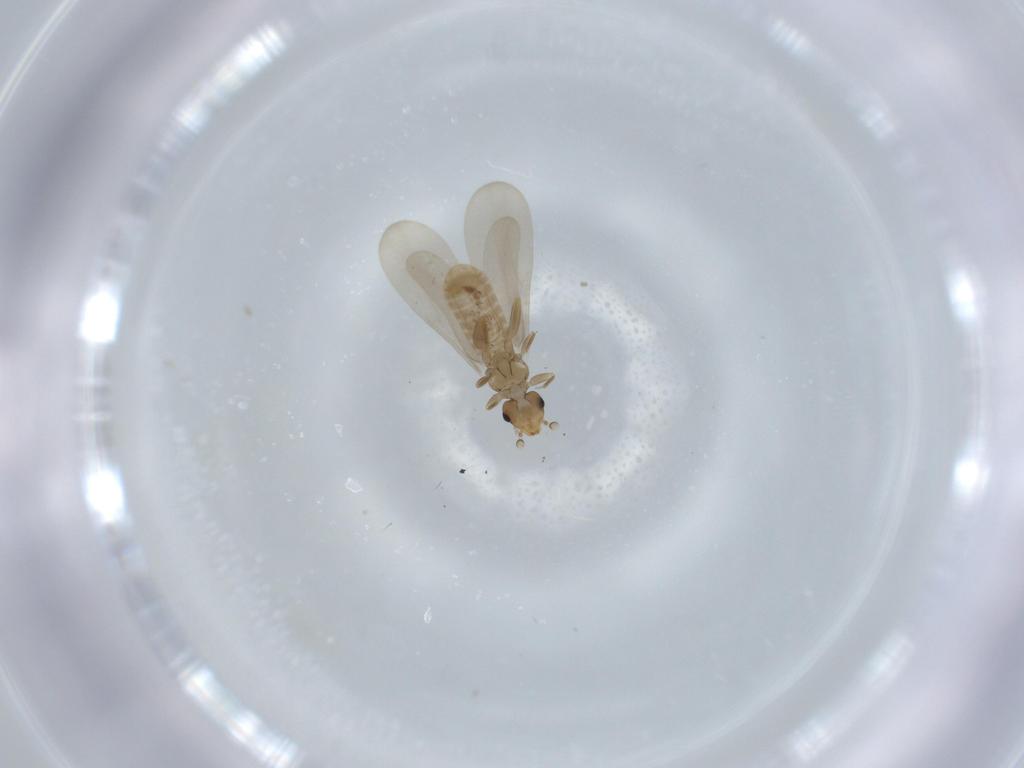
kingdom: Animalia
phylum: Arthropoda
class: Insecta
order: Psocodea
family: Liposcelididae
